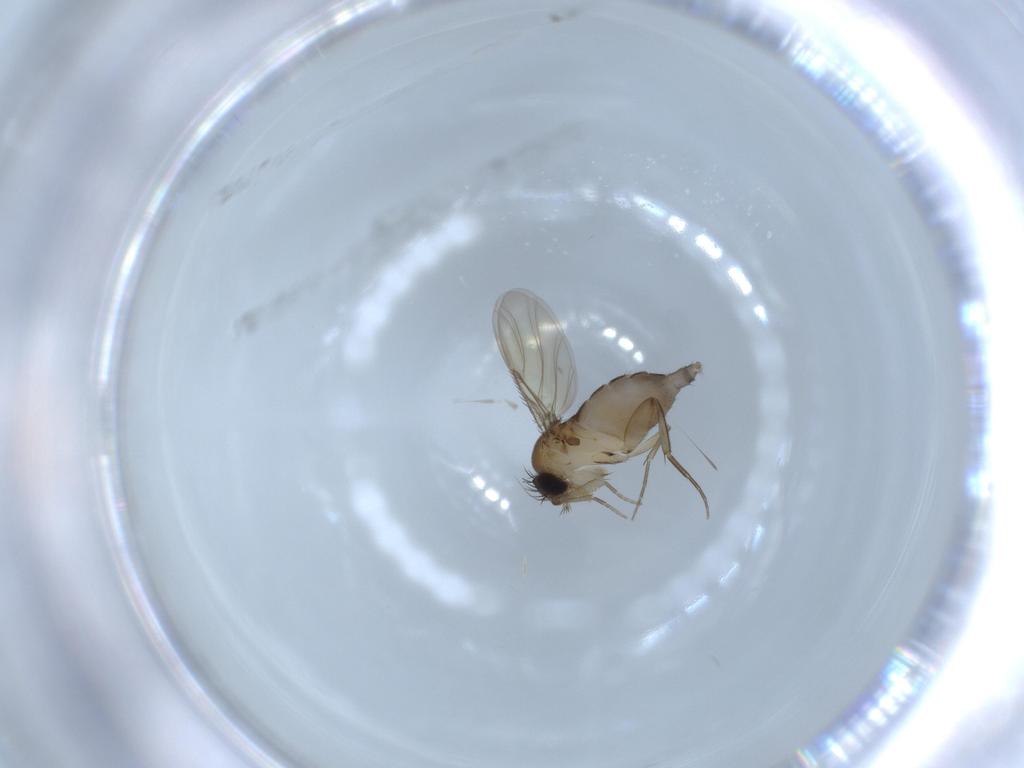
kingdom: Animalia
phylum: Arthropoda
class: Insecta
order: Diptera
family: Phoridae
